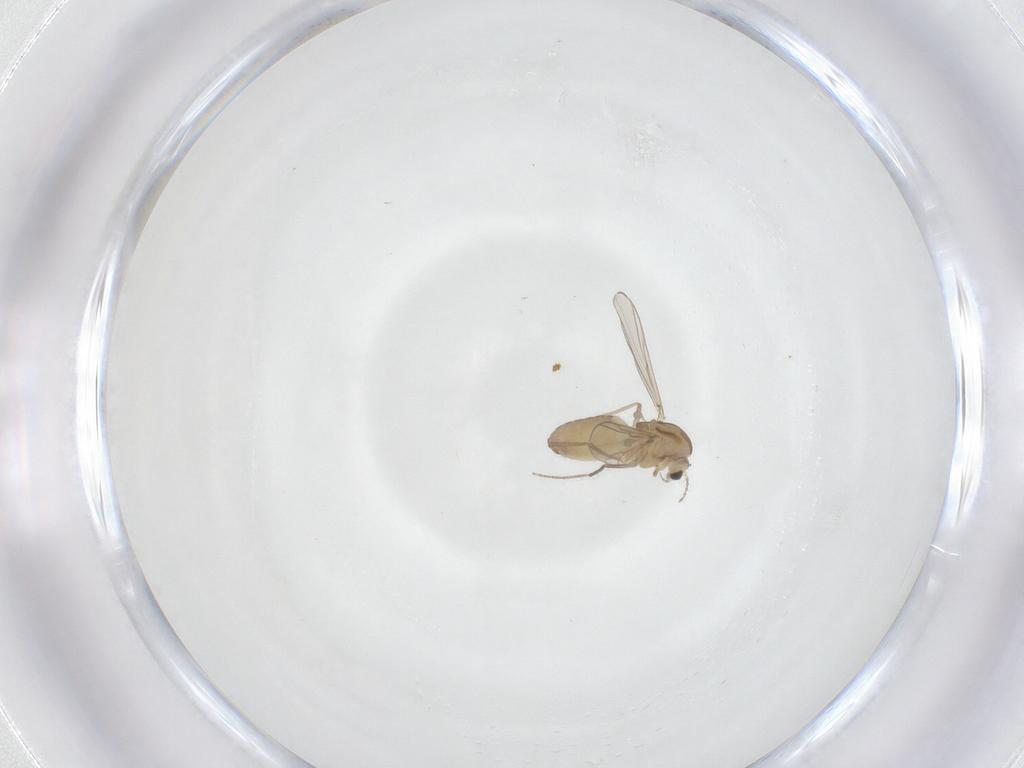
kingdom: Animalia
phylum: Arthropoda
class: Insecta
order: Diptera
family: Chironomidae
